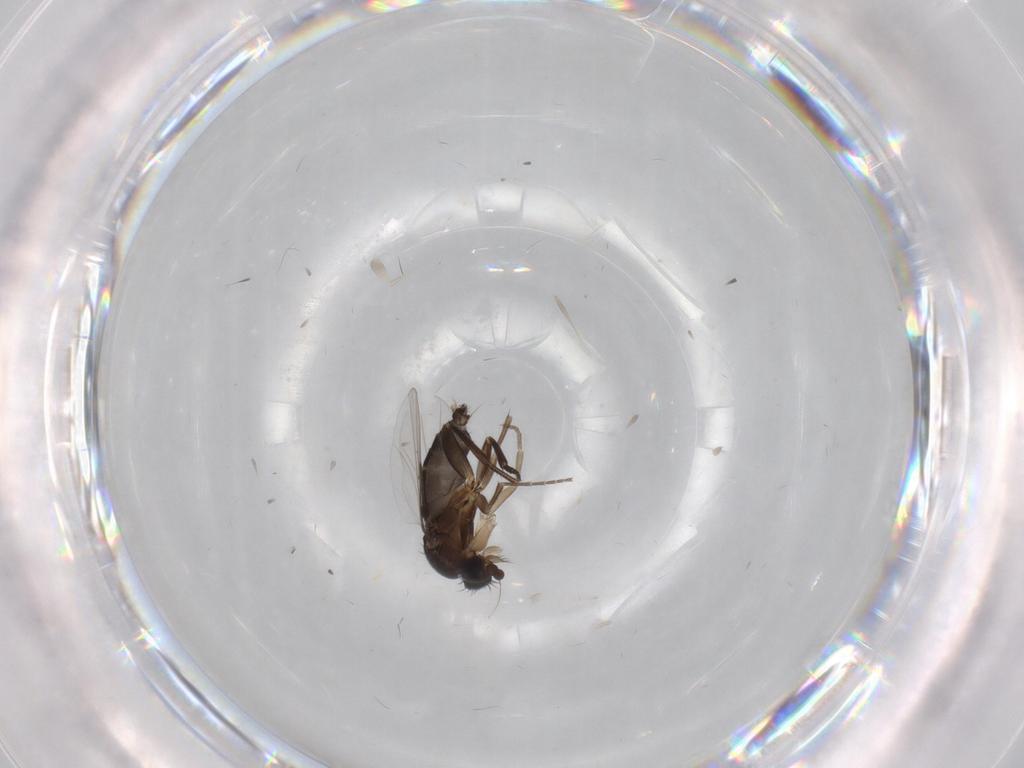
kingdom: Animalia
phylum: Arthropoda
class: Insecta
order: Diptera
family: Phoridae
